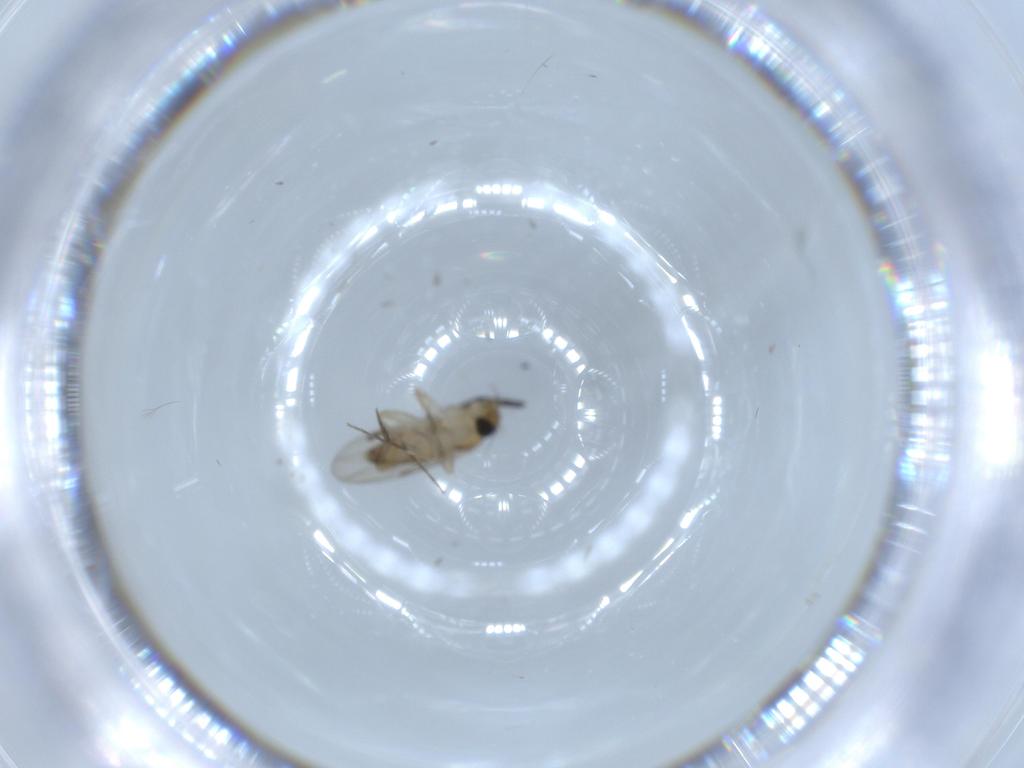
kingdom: Animalia
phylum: Arthropoda
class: Insecta
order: Diptera
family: Phoridae
